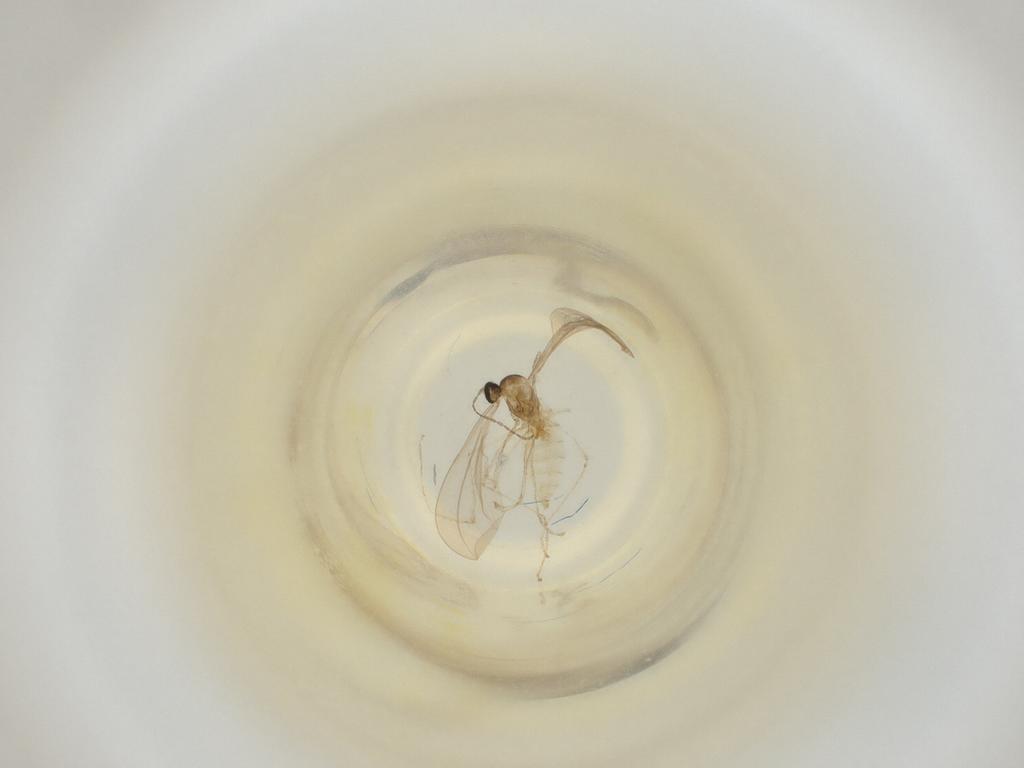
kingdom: Animalia
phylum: Arthropoda
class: Insecta
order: Diptera
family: Cecidomyiidae
